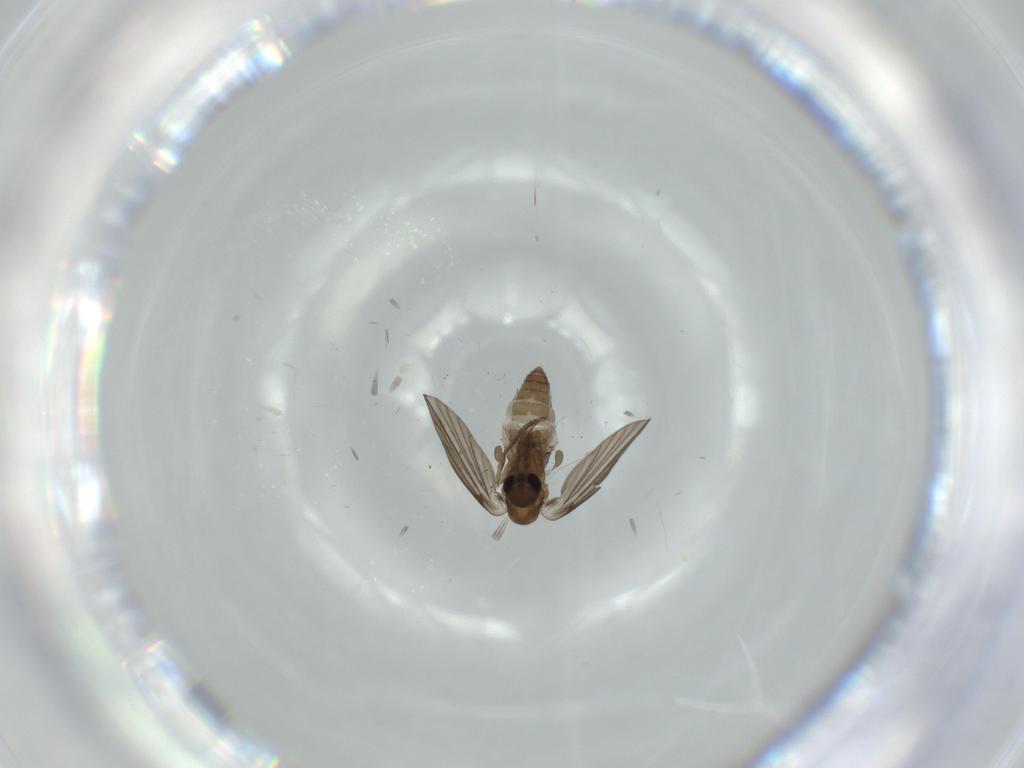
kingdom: Animalia
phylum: Arthropoda
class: Insecta
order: Diptera
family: Psychodidae
